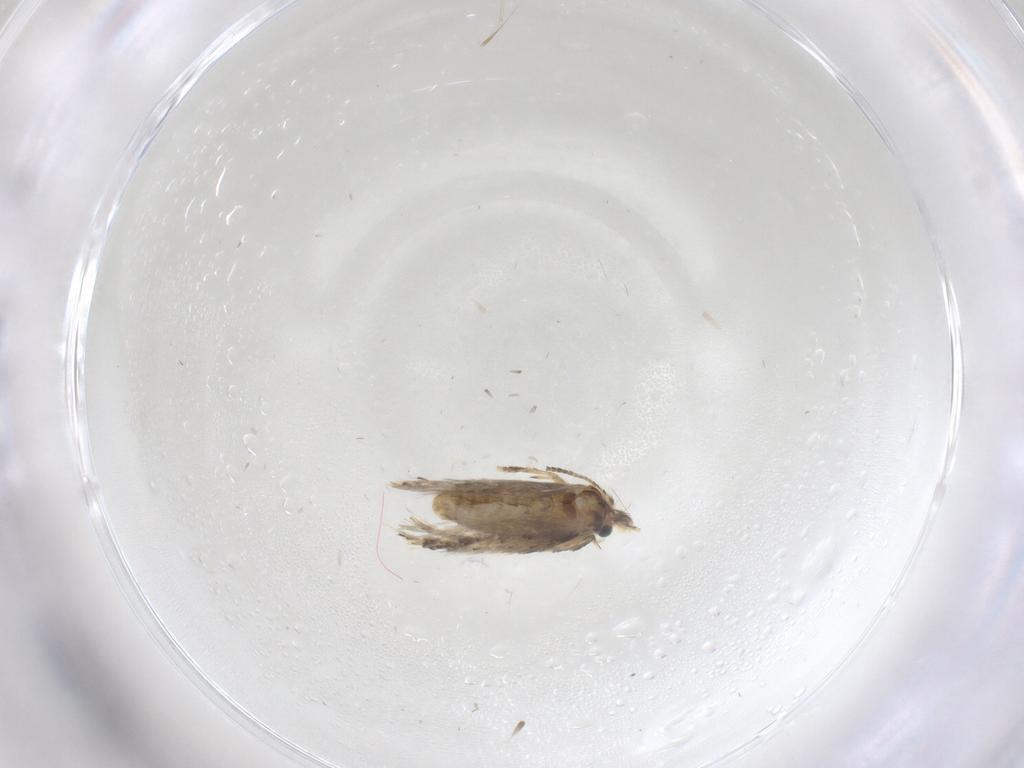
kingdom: Animalia
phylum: Arthropoda
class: Insecta
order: Lepidoptera
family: Nepticulidae
